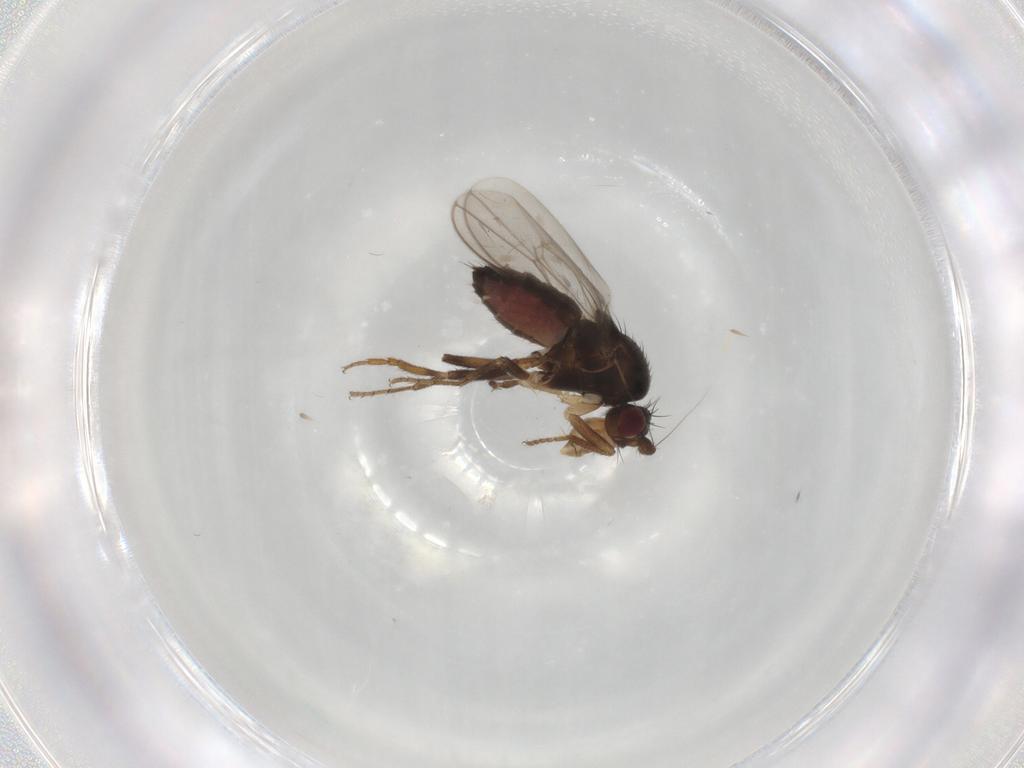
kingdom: Animalia
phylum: Arthropoda
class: Insecta
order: Diptera
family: Sphaeroceridae
